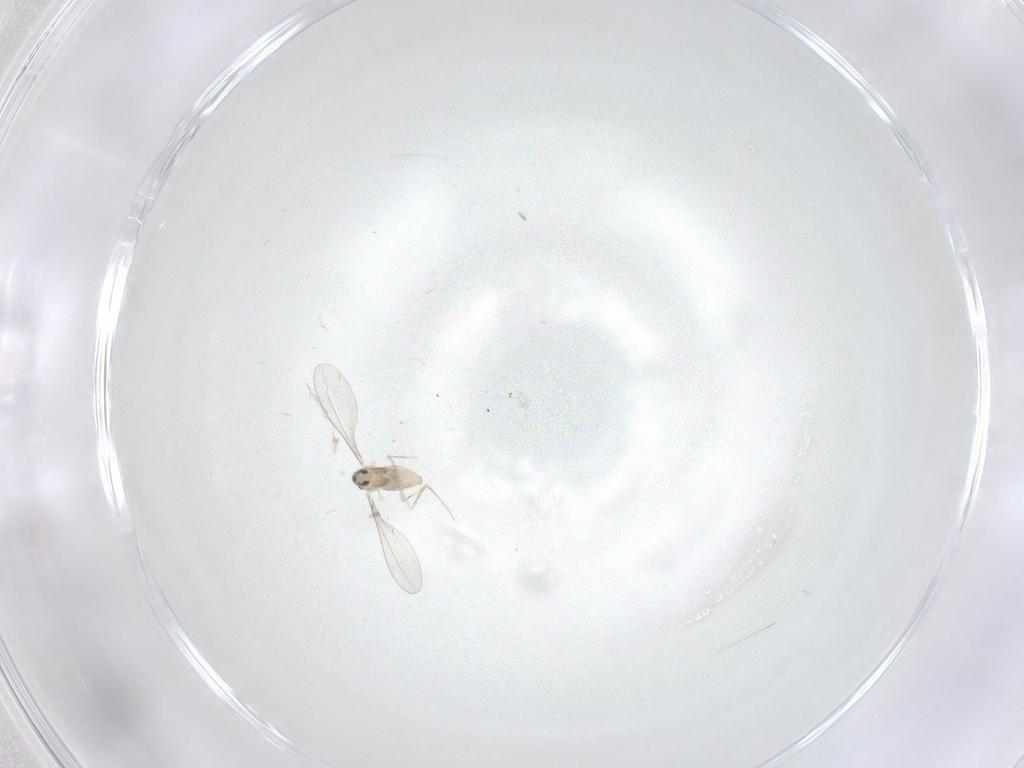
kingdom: Animalia
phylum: Arthropoda
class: Insecta
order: Diptera
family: Cecidomyiidae
